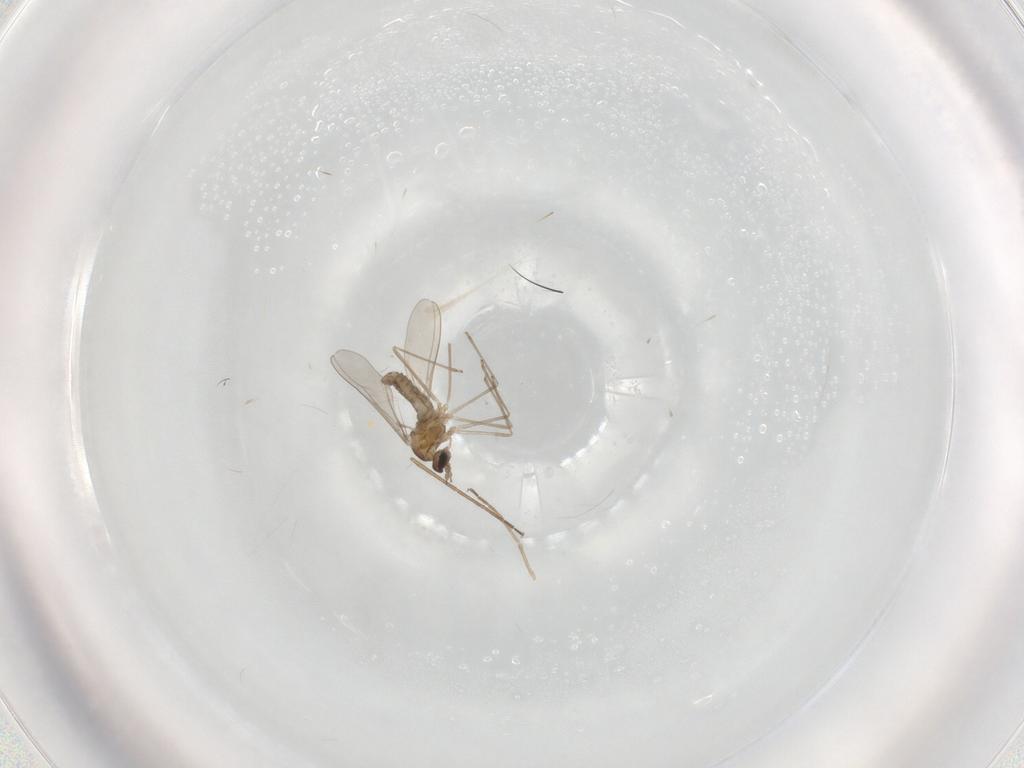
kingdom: Animalia
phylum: Arthropoda
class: Insecta
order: Diptera
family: Cecidomyiidae
